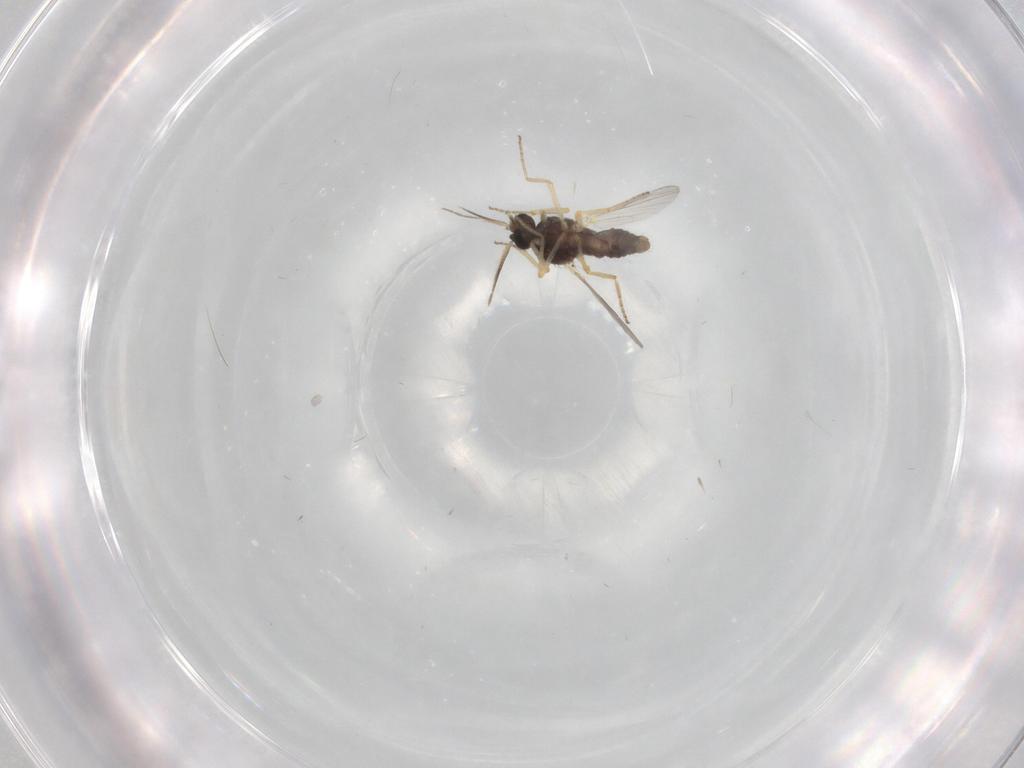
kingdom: Animalia
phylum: Arthropoda
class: Insecta
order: Diptera
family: Ceratopogonidae
